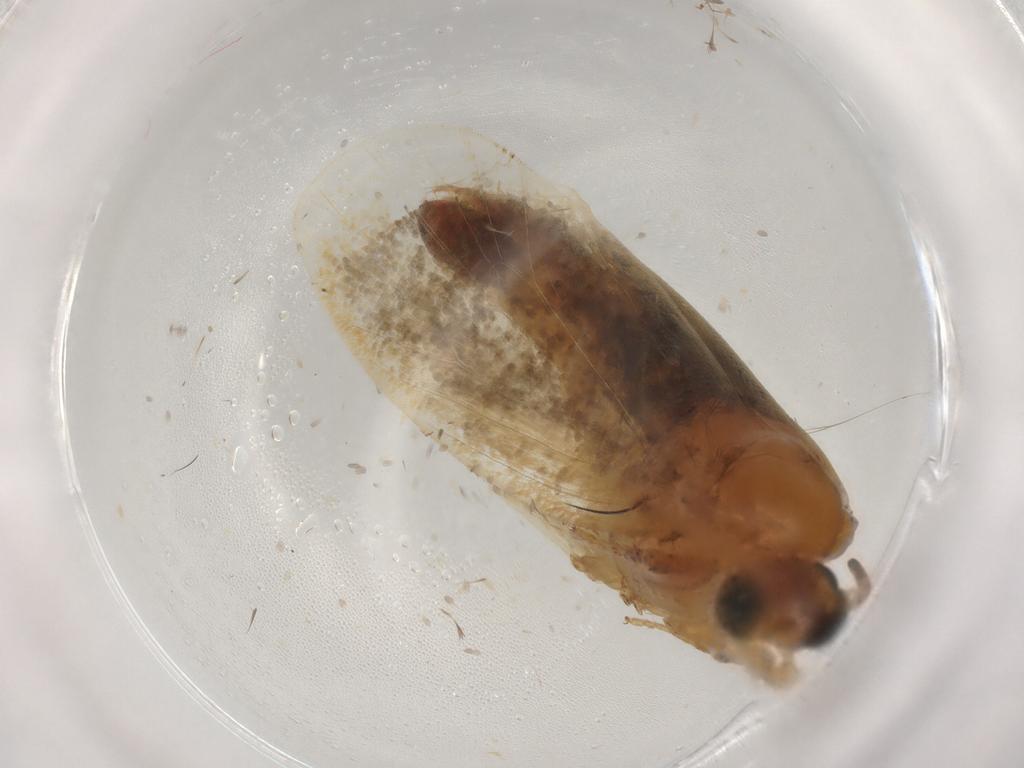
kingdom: Animalia
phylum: Arthropoda
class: Insecta
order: Lepidoptera
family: Tineidae
